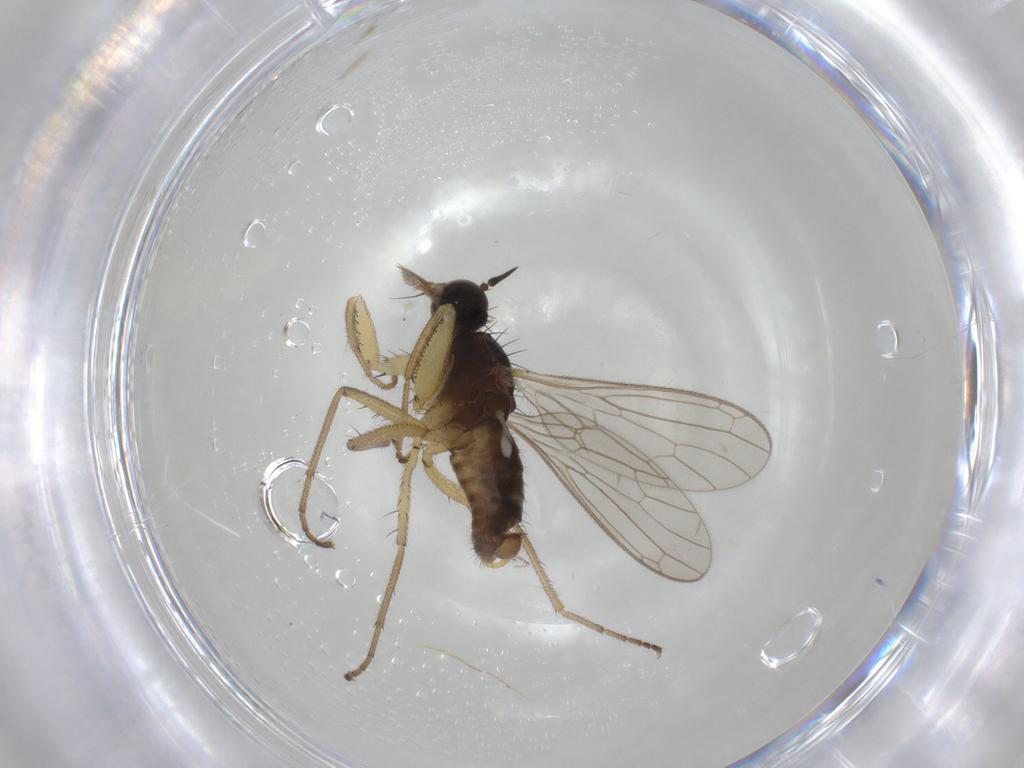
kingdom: Animalia
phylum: Arthropoda
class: Insecta
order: Diptera
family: Empididae
